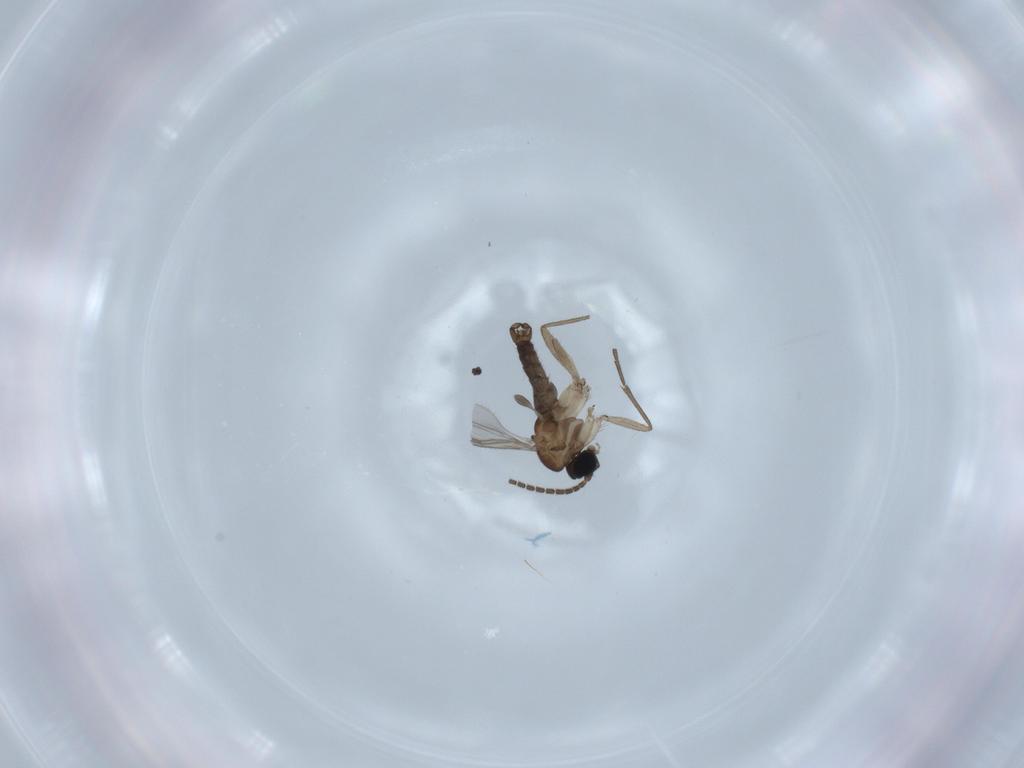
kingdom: Animalia
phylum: Arthropoda
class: Insecta
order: Diptera
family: Sciaridae
